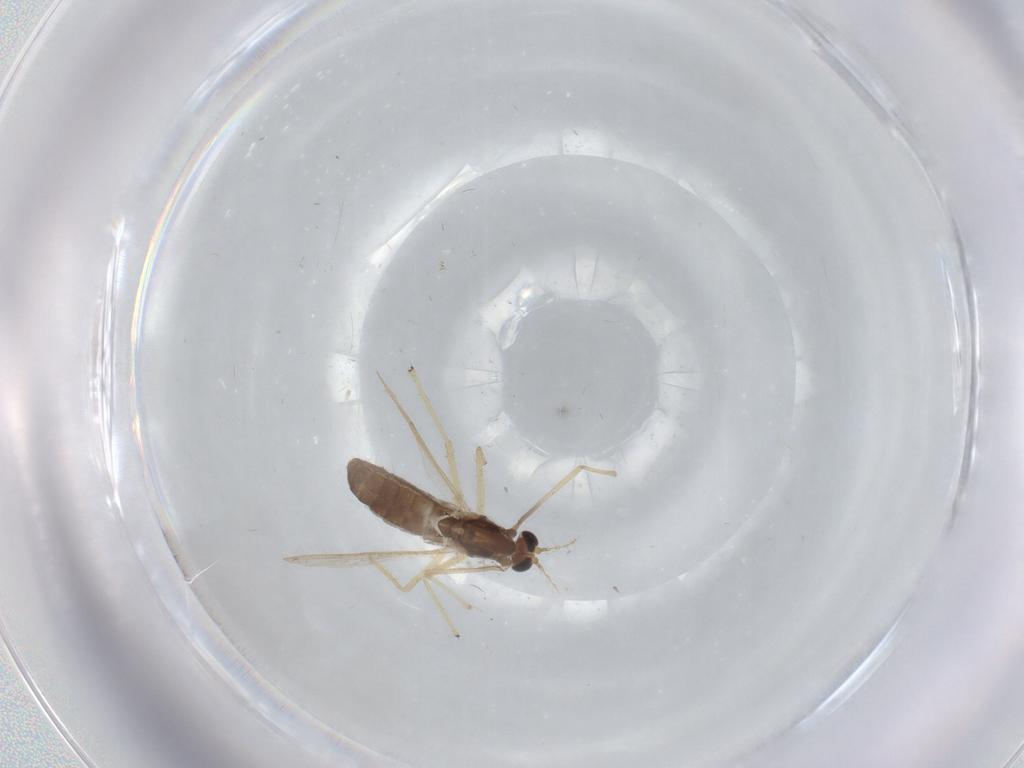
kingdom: Animalia
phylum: Arthropoda
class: Insecta
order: Diptera
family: Chironomidae
